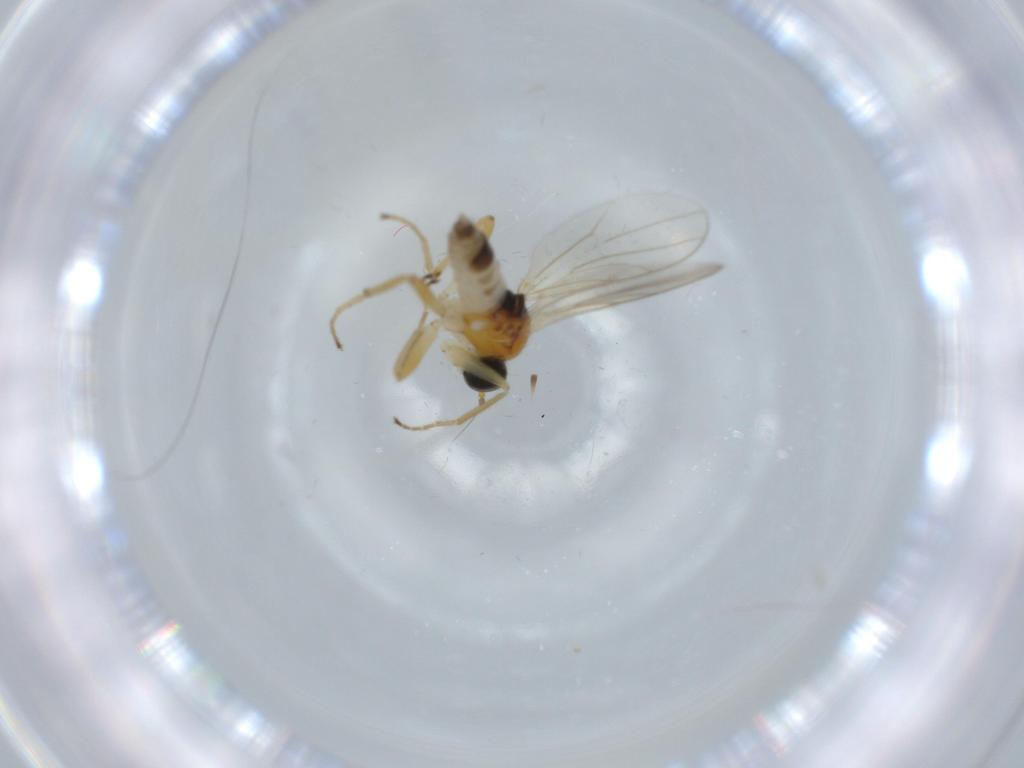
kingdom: Animalia
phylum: Arthropoda
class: Insecta
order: Diptera
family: Hybotidae
